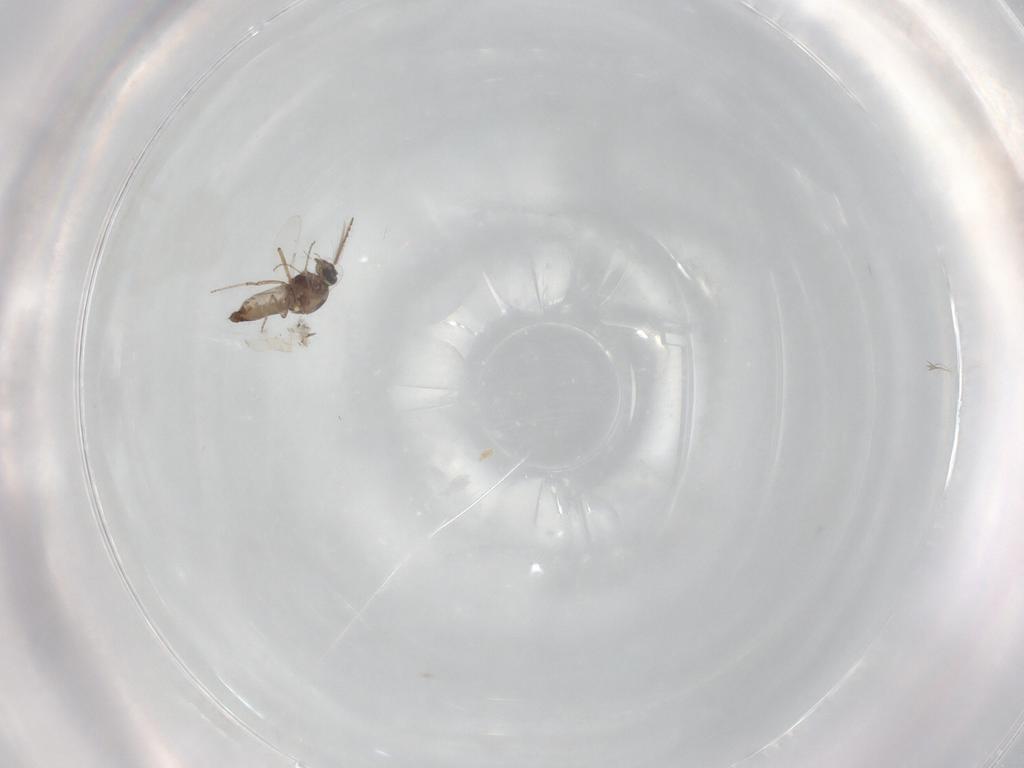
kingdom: Animalia
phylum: Arthropoda
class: Insecta
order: Diptera
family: Ceratopogonidae
